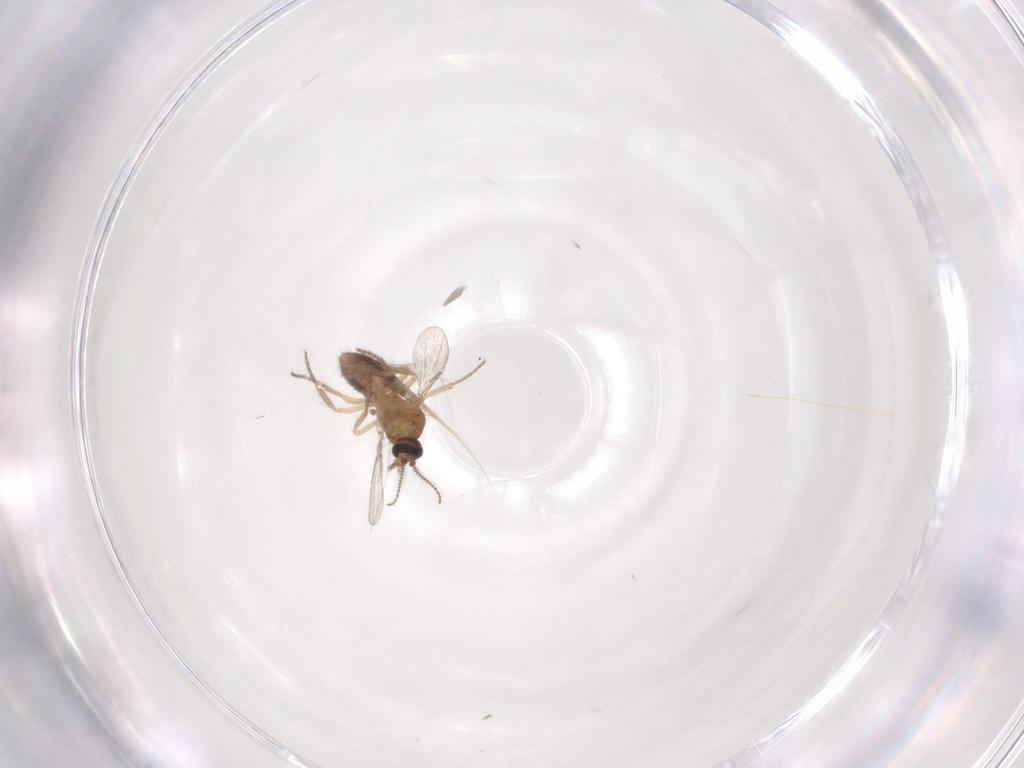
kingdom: Animalia
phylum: Arthropoda
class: Insecta
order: Diptera
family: Ceratopogonidae
